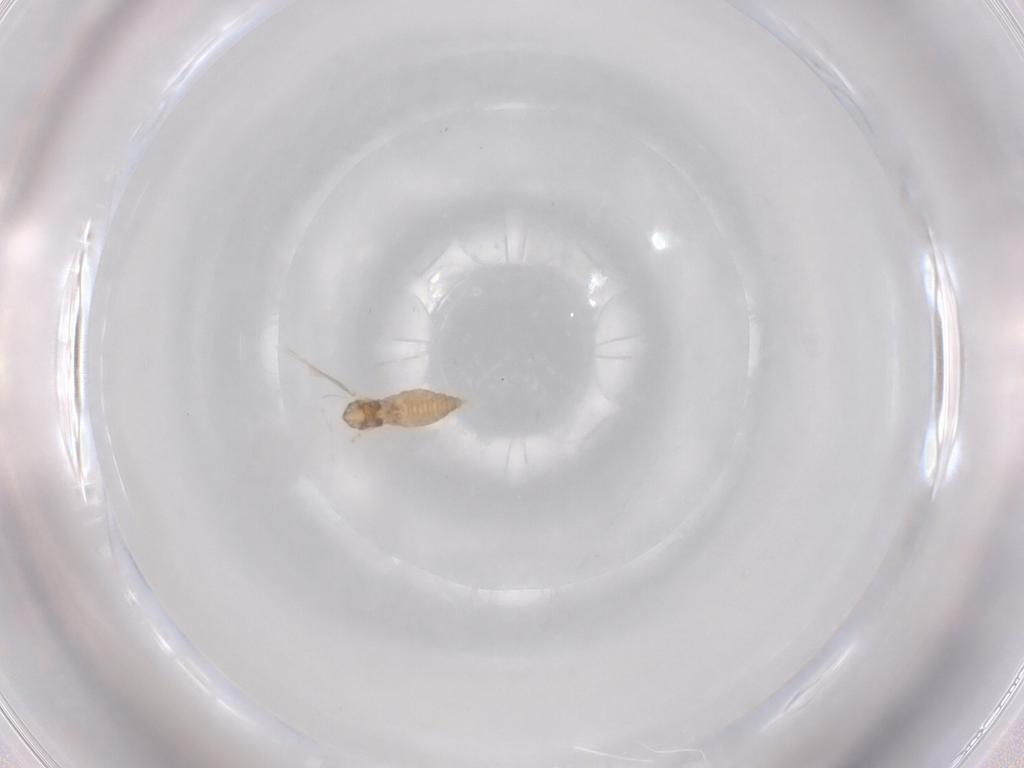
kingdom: Animalia
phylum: Arthropoda
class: Insecta
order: Diptera
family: Cecidomyiidae
